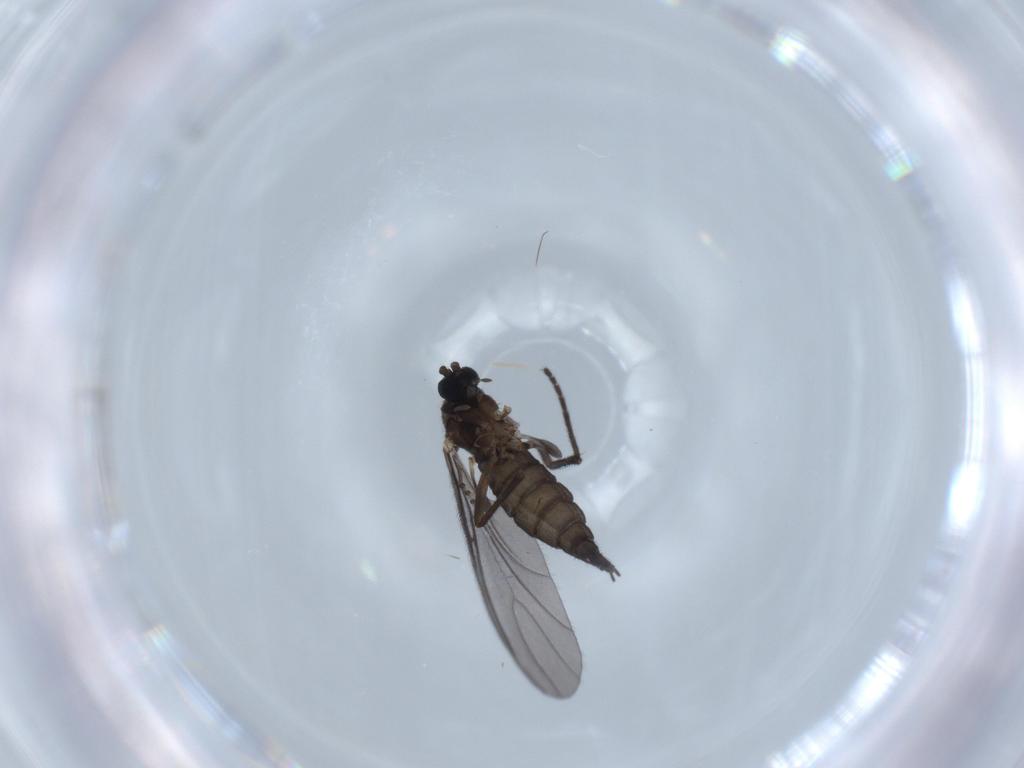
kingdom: Animalia
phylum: Arthropoda
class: Insecta
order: Diptera
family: Sciaridae
